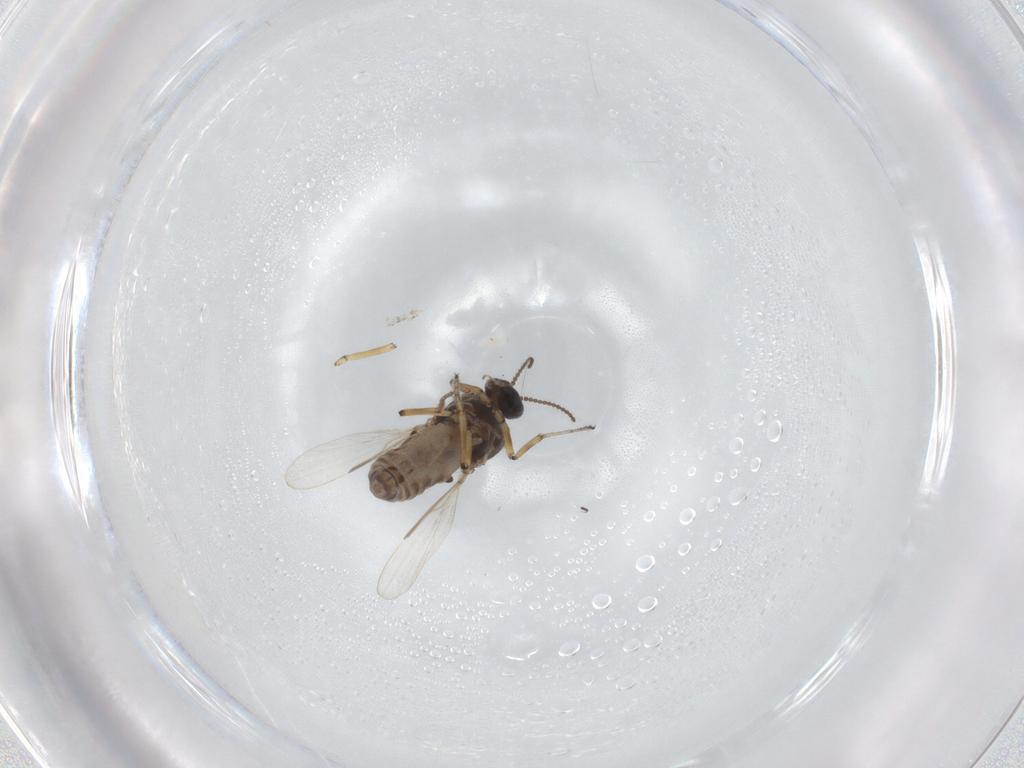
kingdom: Animalia
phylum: Arthropoda
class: Insecta
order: Diptera
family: Ceratopogonidae
